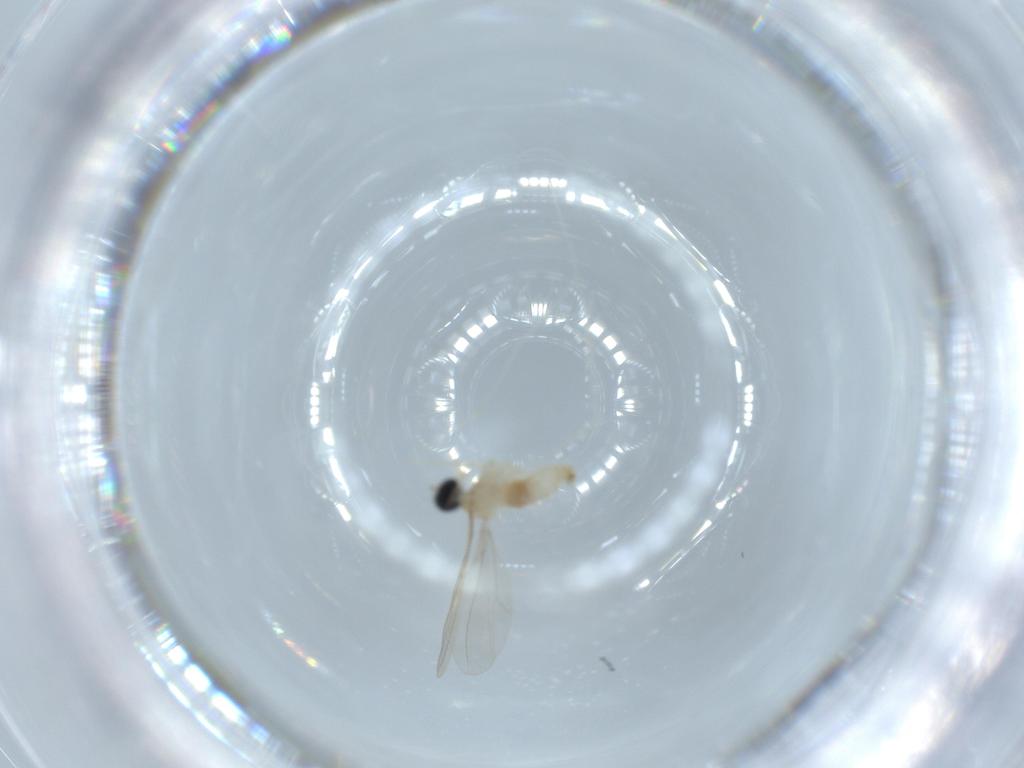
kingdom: Animalia
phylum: Arthropoda
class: Insecta
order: Diptera
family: Cecidomyiidae
